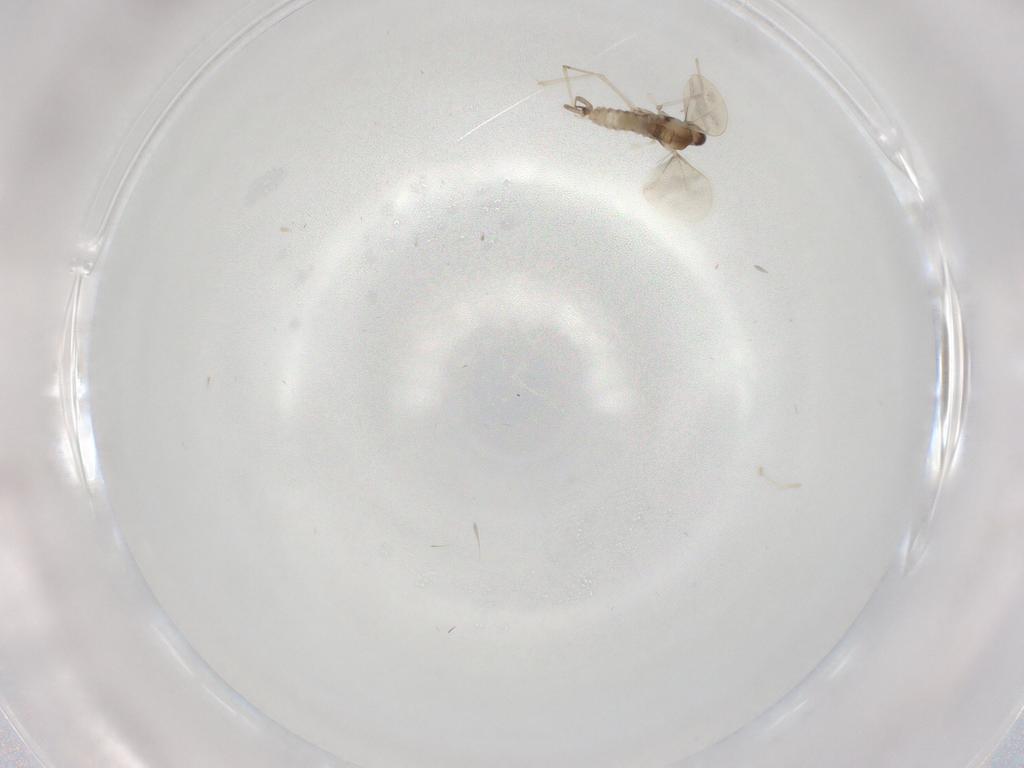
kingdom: Animalia
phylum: Arthropoda
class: Insecta
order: Diptera
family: Cecidomyiidae
